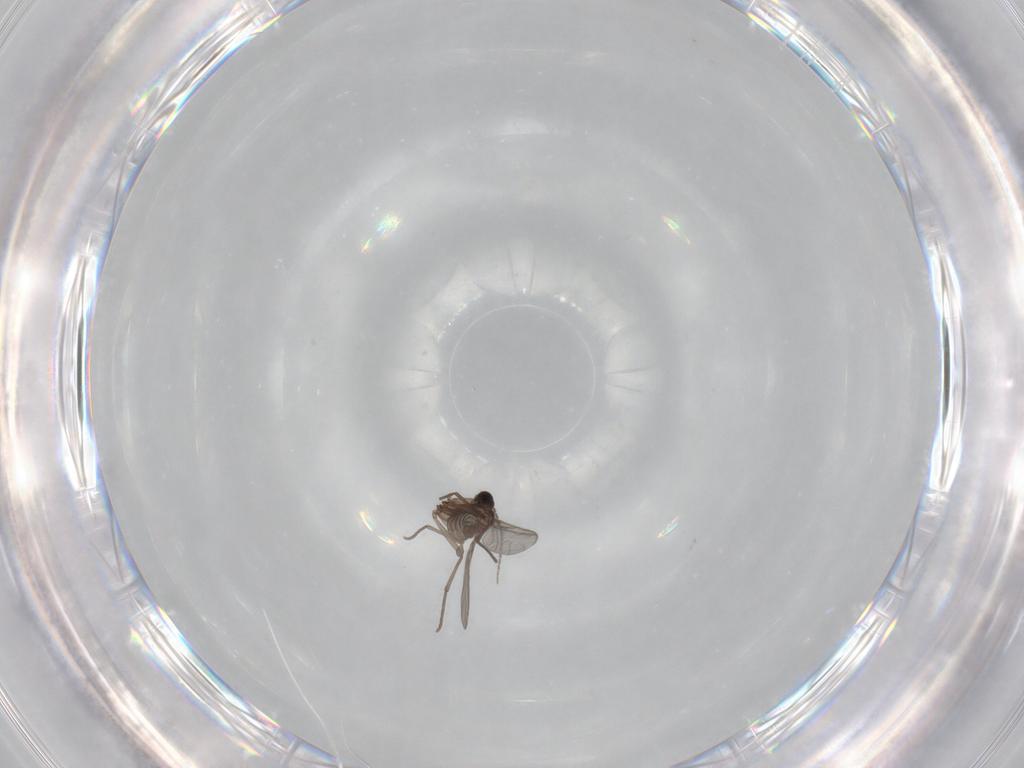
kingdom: Animalia
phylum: Arthropoda
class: Insecta
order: Diptera
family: Sciaridae
